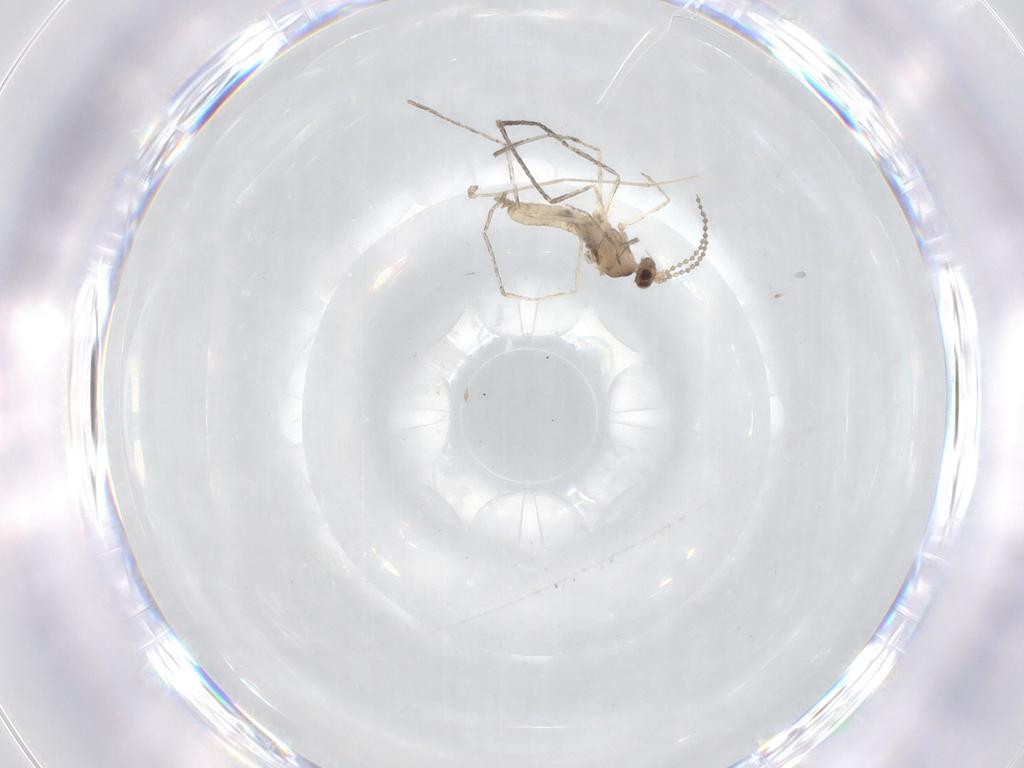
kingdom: Animalia
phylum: Arthropoda
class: Insecta
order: Diptera
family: Cecidomyiidae
